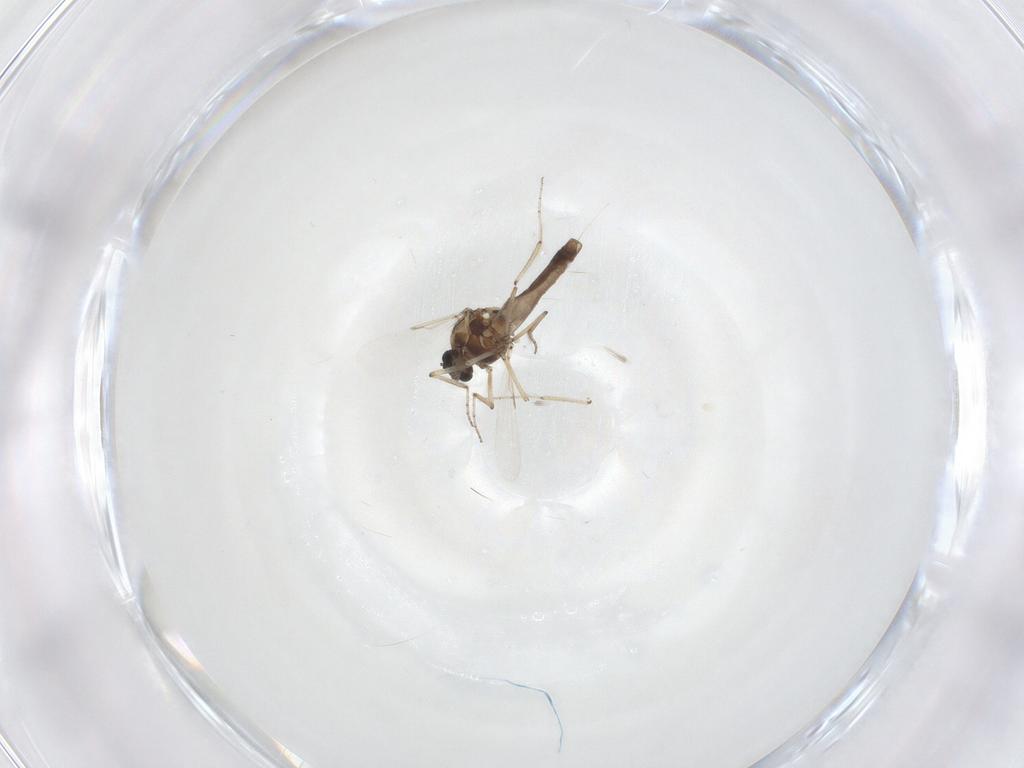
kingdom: Animalia
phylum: Arthropoda
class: Insecta
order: Diptera
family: Ceratopogonidae
